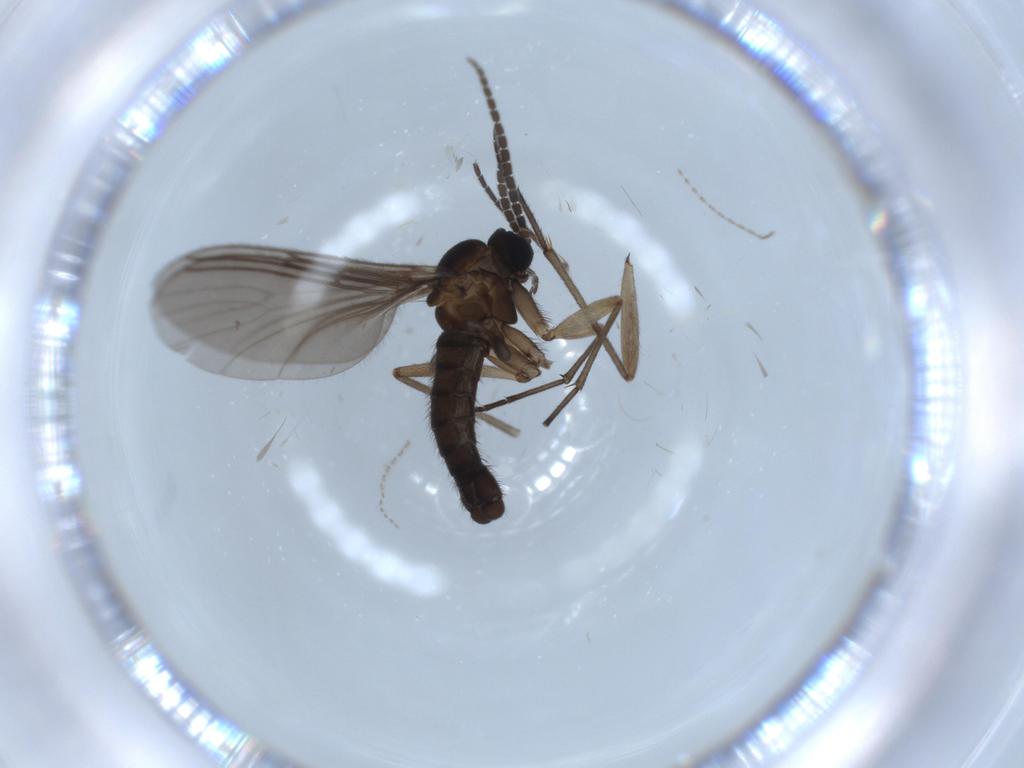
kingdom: Animalia
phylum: Arthropoda
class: Insecta
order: Diptera
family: Sciaridae
